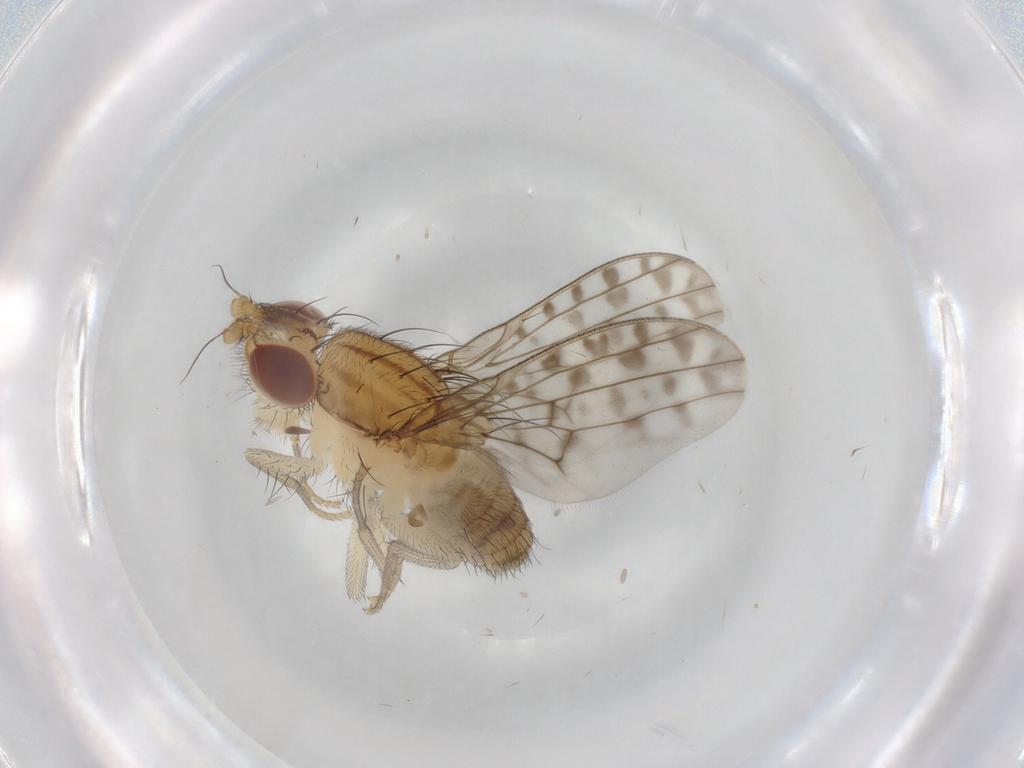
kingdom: Animalia
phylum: Arthropoda
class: Insecta
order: Diptera
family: Lauxaniidae
